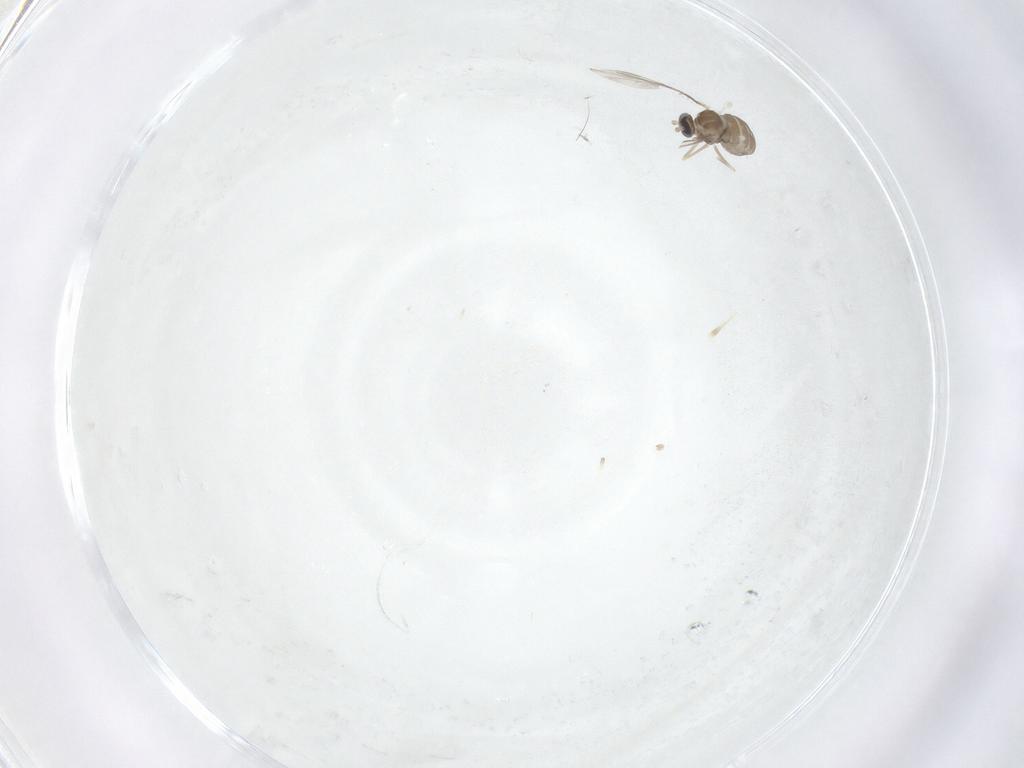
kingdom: Animalia
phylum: Arthropoda
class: Insecta
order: Diptera
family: Cecidomyiidae
